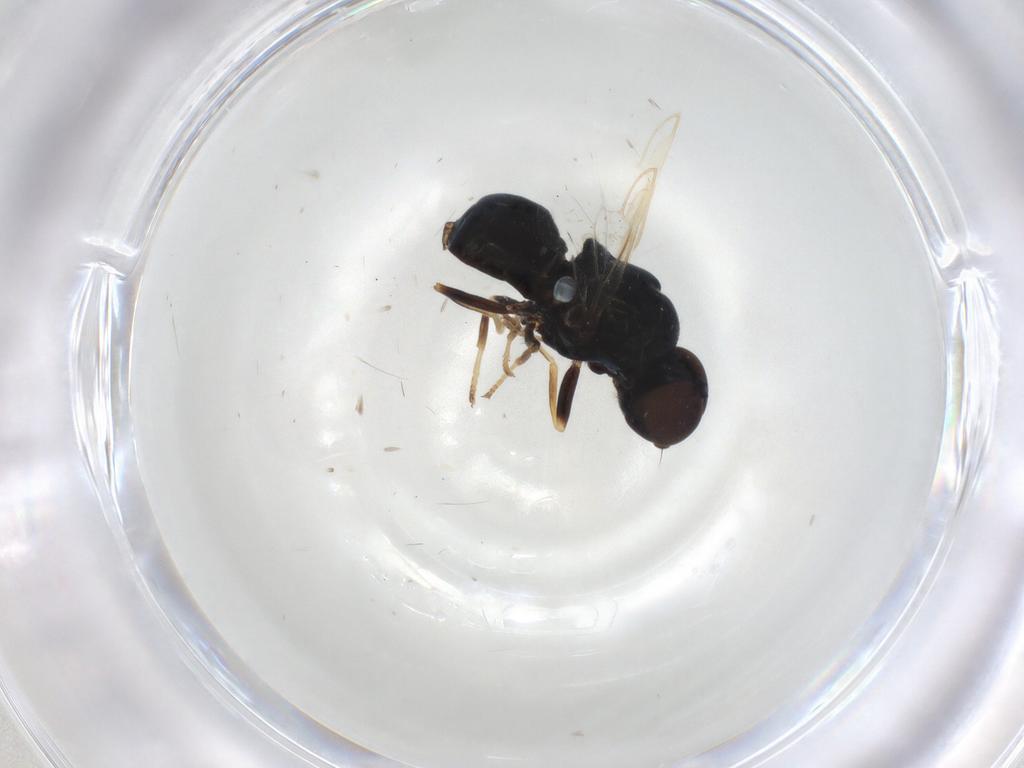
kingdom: Animalia
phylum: Arthropoda
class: Insecta
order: Diptera
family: Stratiomyidae
